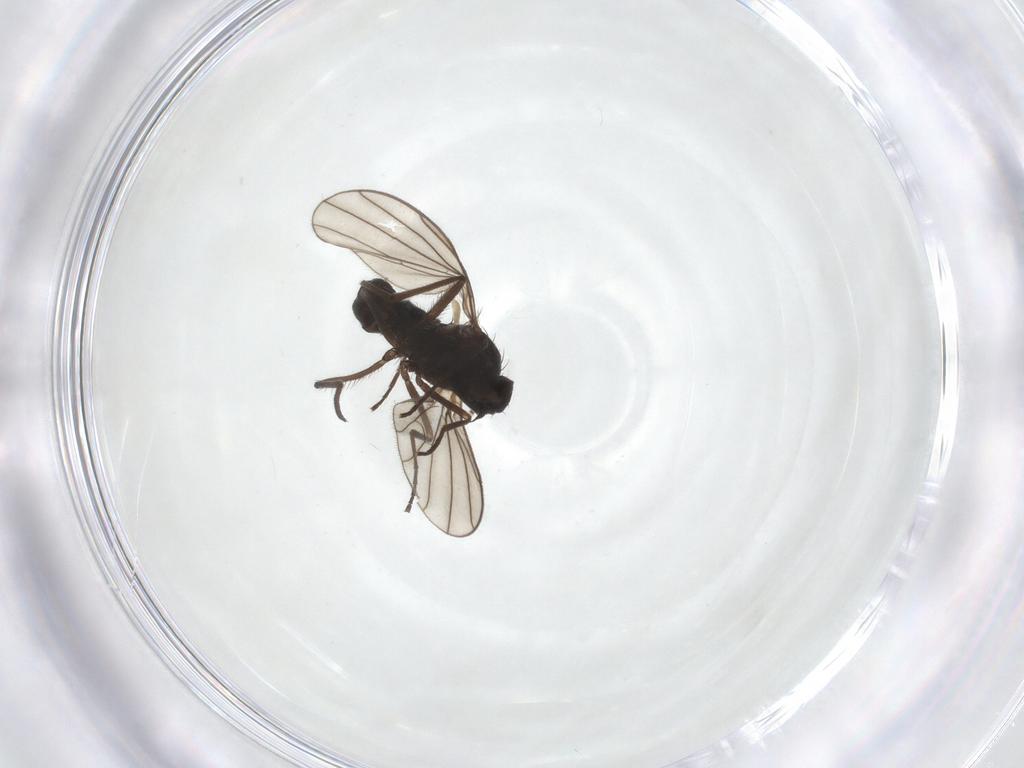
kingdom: Animalia
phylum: Arthropoda
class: Insecta
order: Diptera
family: Dolichopodidae
